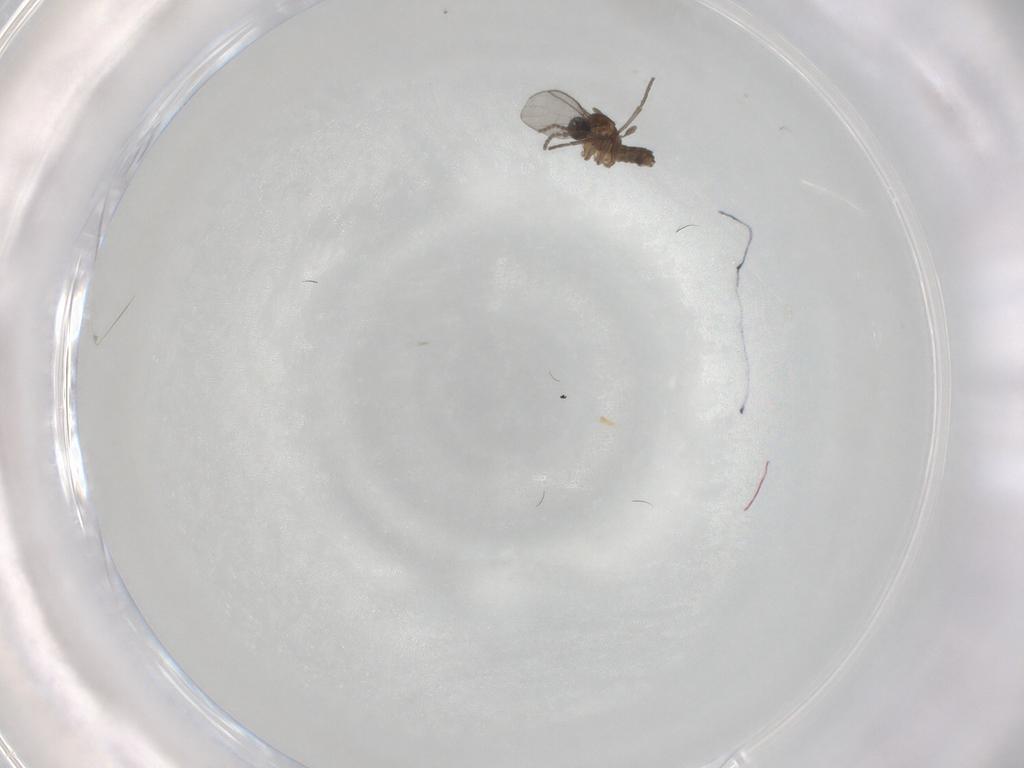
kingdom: Animalia
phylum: Arthropoda
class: Insecta
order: Diptera
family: Sciaridae
